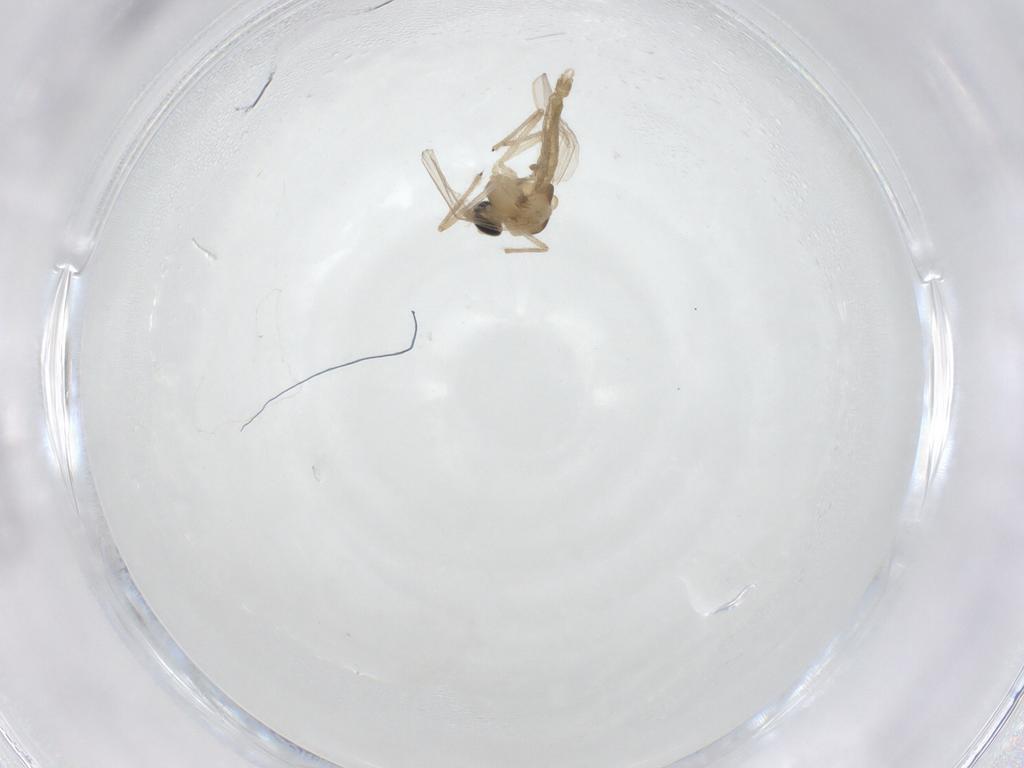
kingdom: Animalia
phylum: Arthropoda
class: Insecta
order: Diptera
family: Chironomidae
